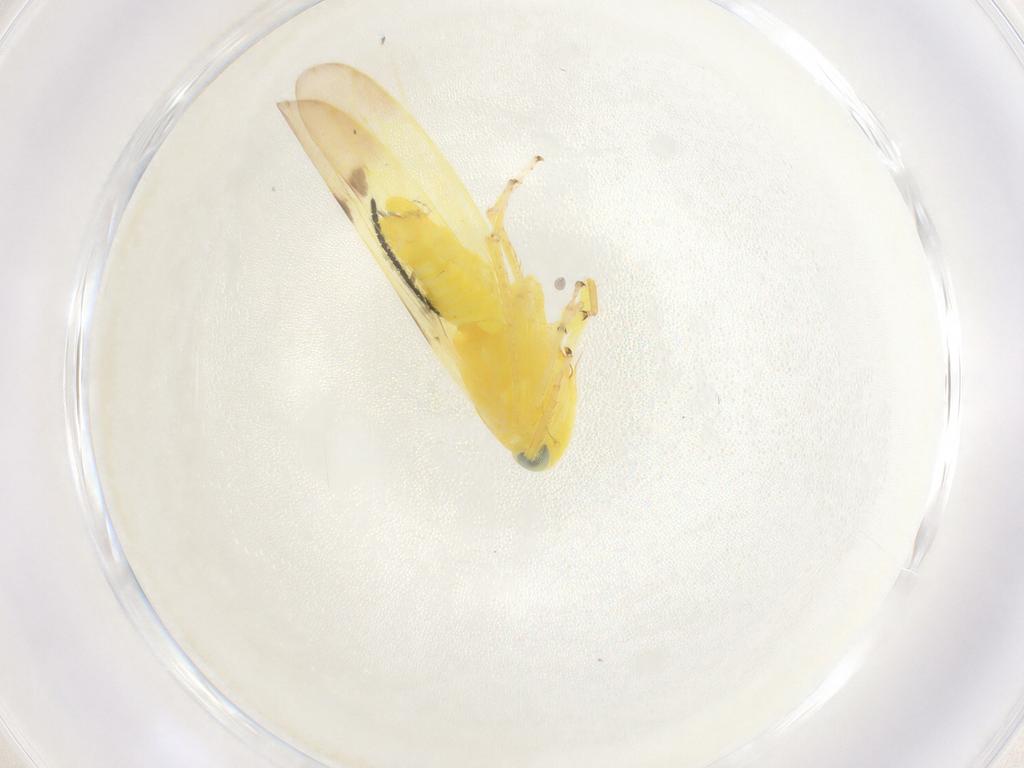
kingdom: Animalia
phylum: Arthropoda
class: Insecta
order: Hemiptera
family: Cicadellidae
